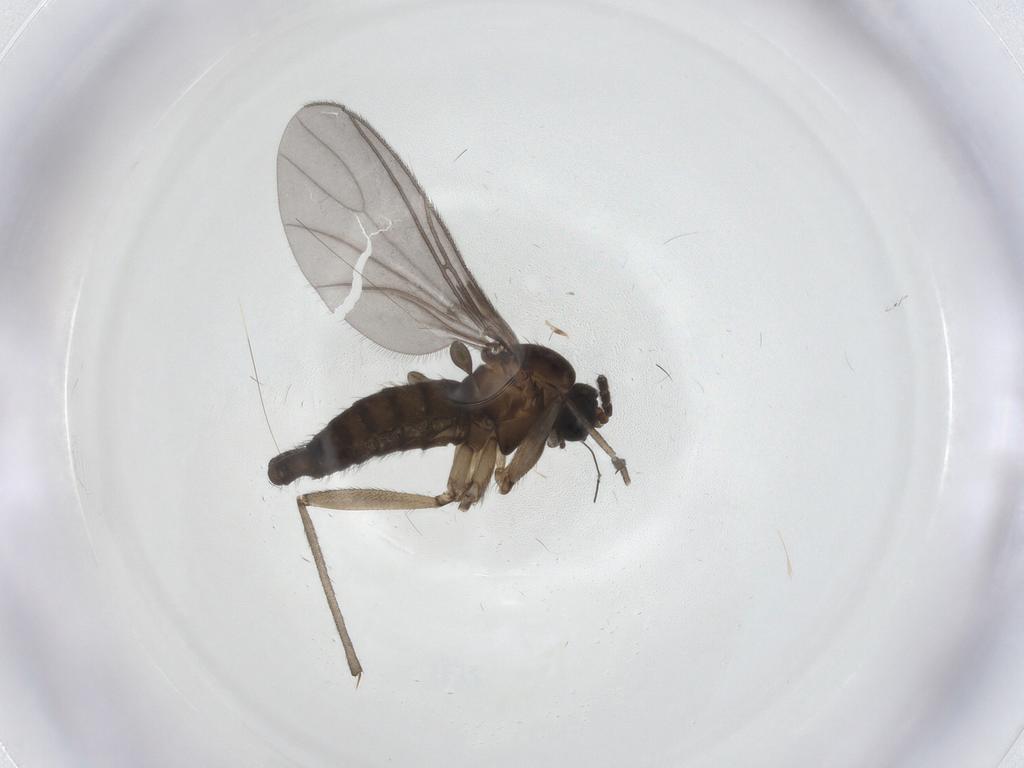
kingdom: Animalia
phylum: Arthropoda
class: Insecta
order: Diptera
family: Sciaridae
